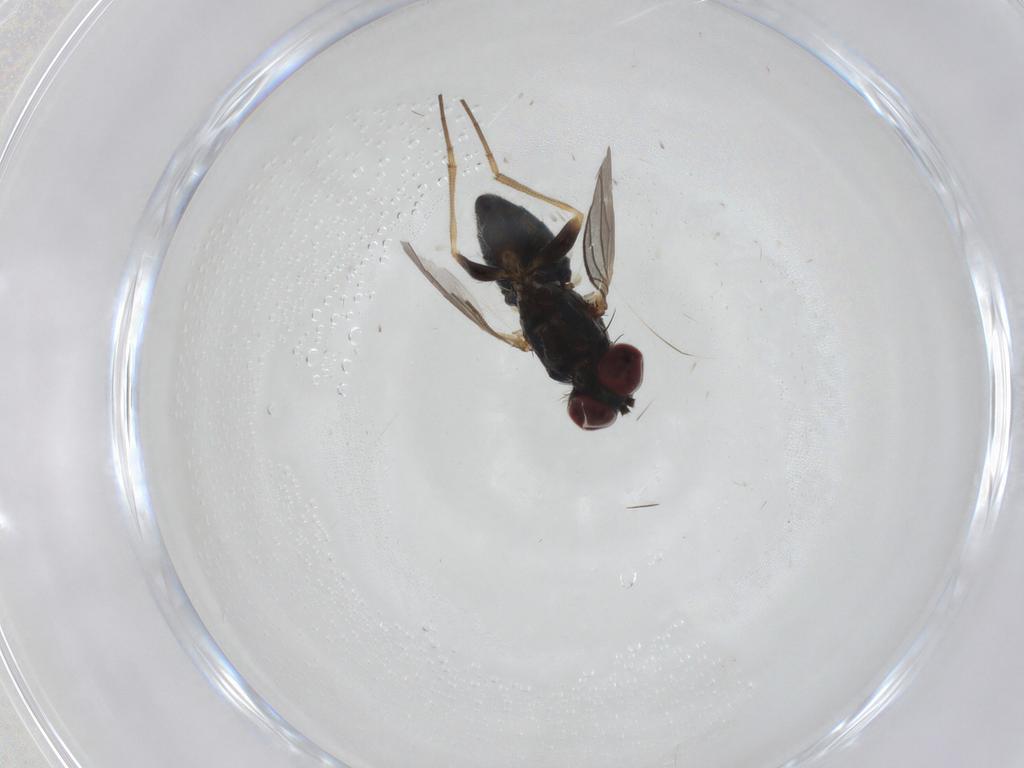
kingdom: Animalia
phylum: Arthropoda
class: Insecta
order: Diptera
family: Dolichopodidae
